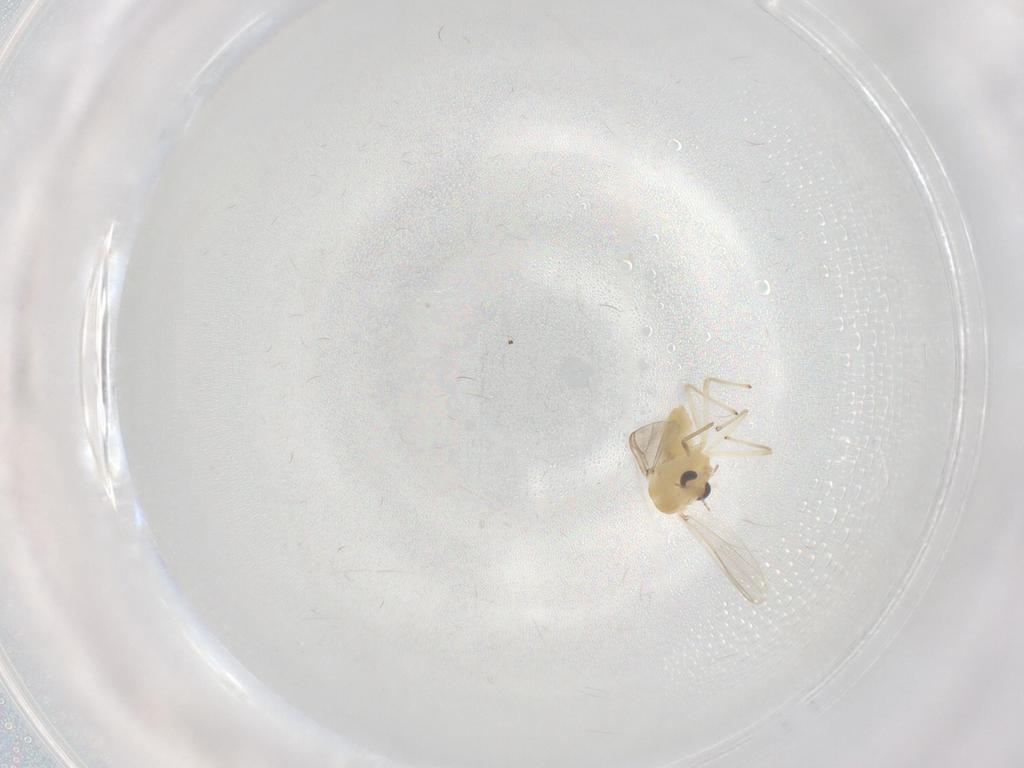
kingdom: Animalia
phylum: Arthropoda
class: Insecta
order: Diptera
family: Chironomidae
